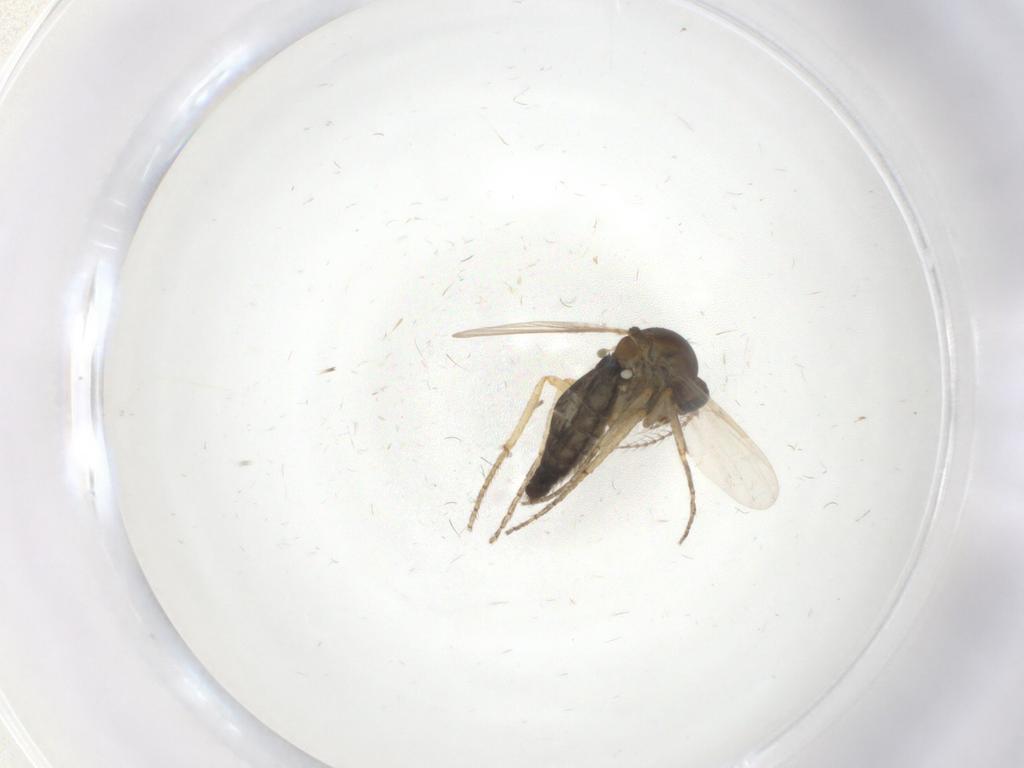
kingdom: Animalia
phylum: Arthropoda
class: Insecta
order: Diptera
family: Ceratopogonidae
